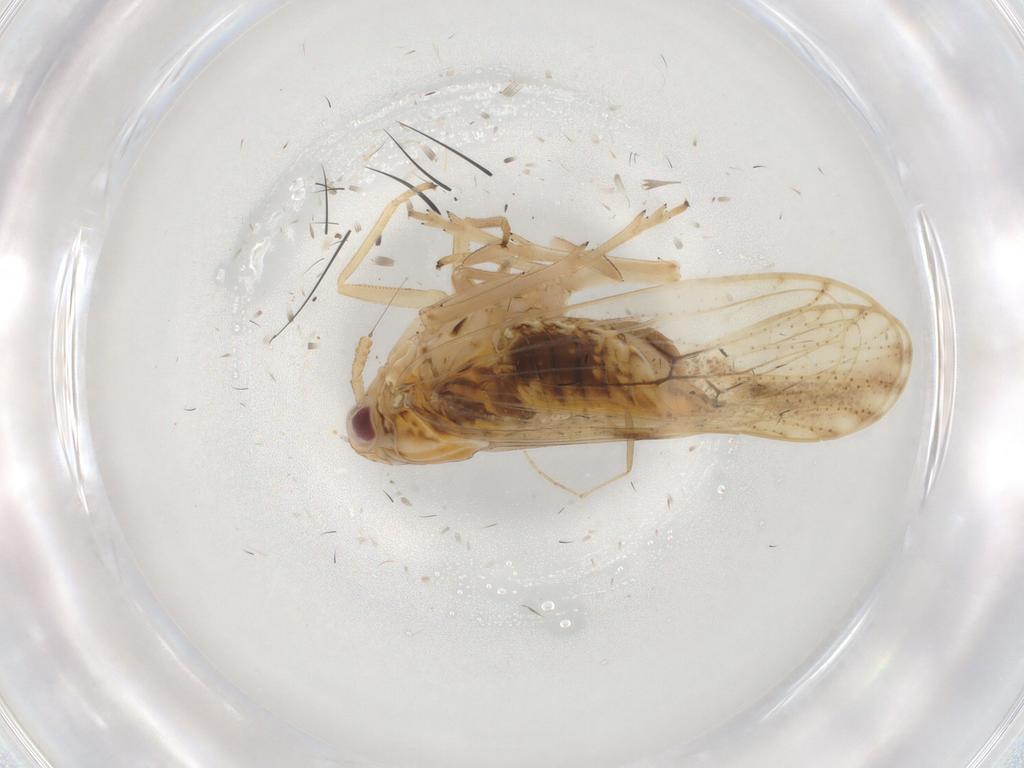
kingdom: Animalia
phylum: Arthropoda
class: Insecta
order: Hemiptera
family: Delphacidae
